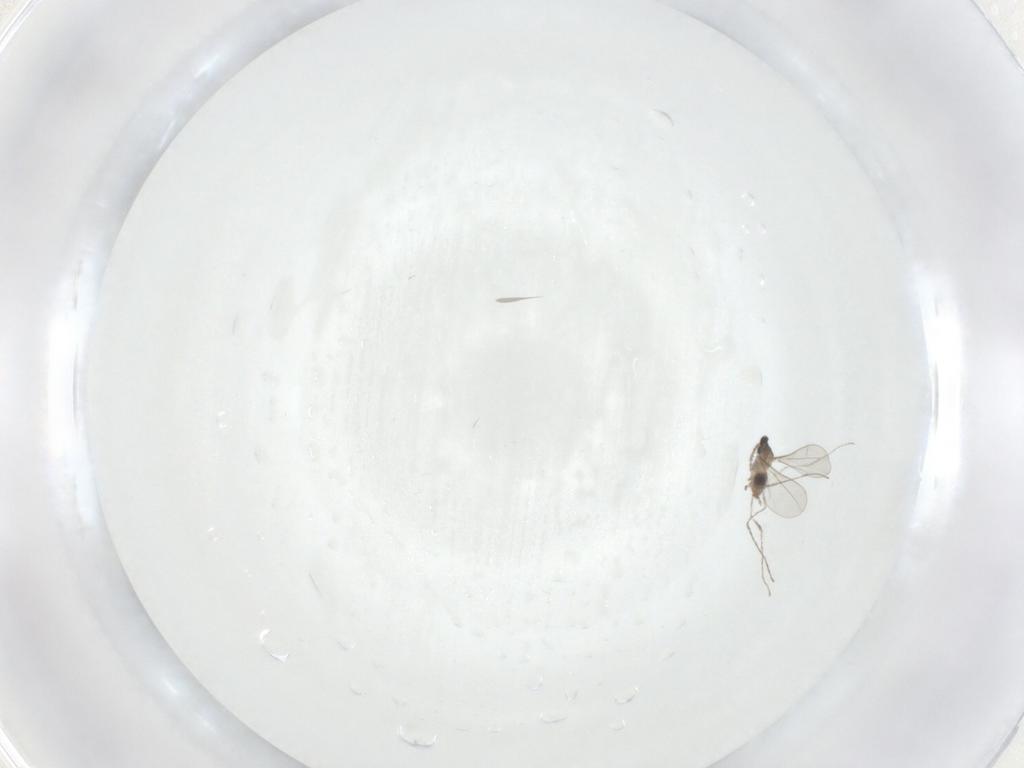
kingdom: Animalia
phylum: Arthropoda
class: Insecta
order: Diptera
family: Cecidomyiidae
